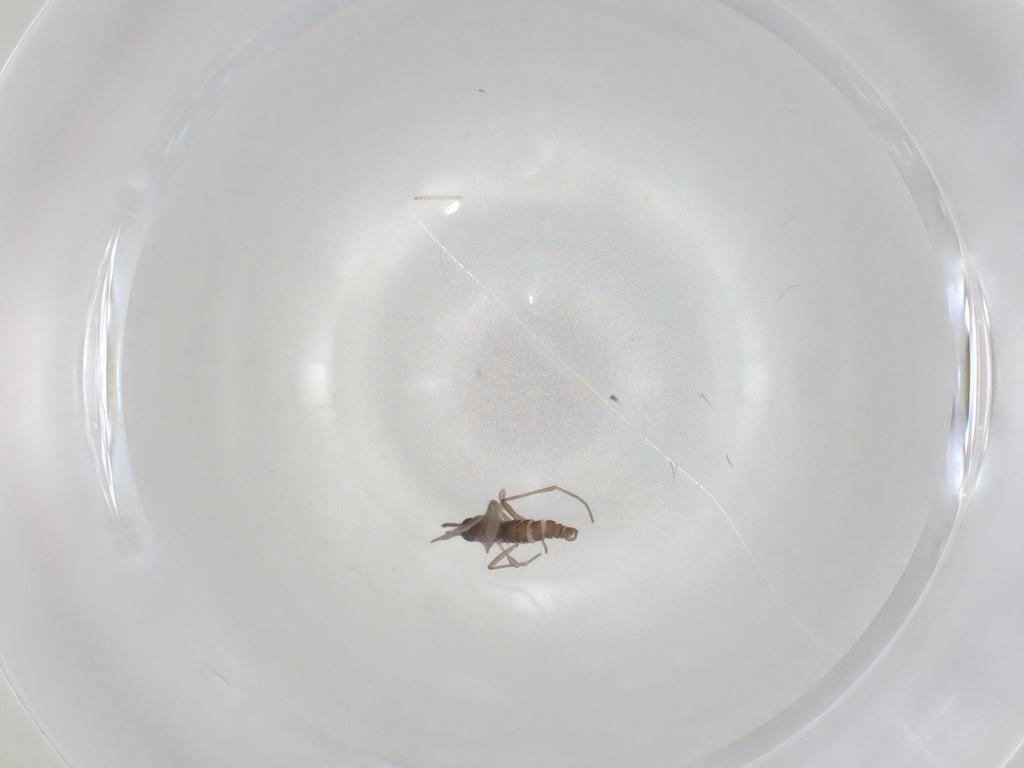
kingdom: Animalia
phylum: Arthropoda
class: Insecta
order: Diptera
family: Sciaridae
